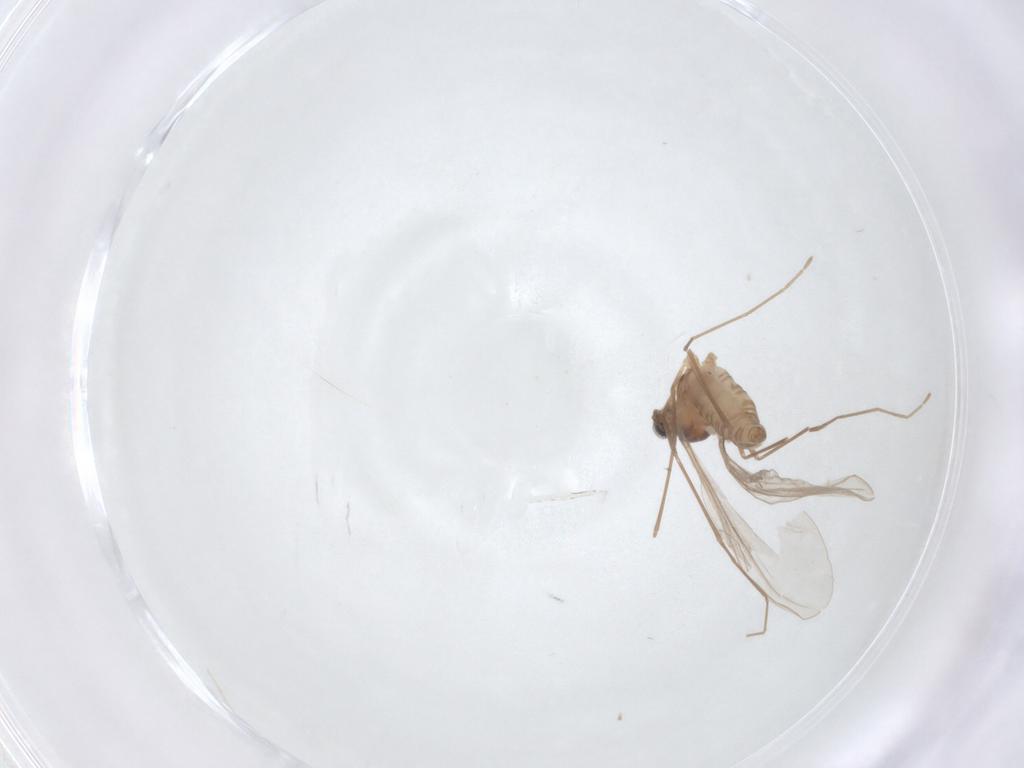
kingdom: Animalia
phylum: Arthropoda
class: Insecta
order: Diptera
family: Cecidomyiidae
